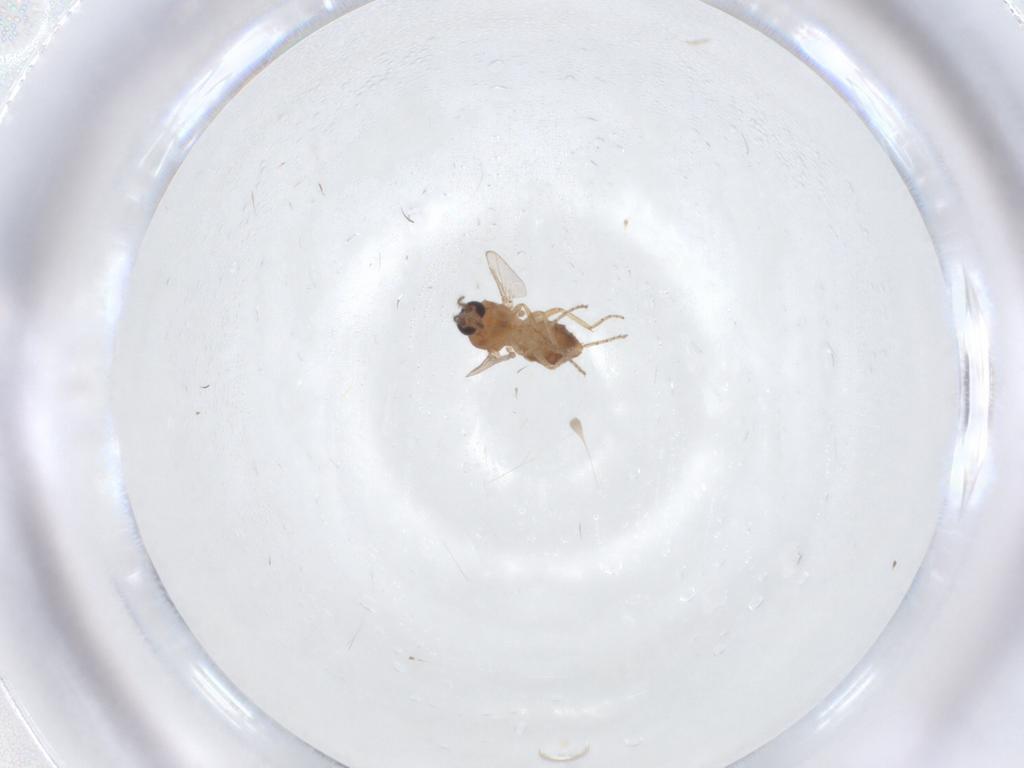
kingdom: Animalia
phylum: Arthropoda
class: Insecta
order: Diptera
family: Ceratopogonidae
